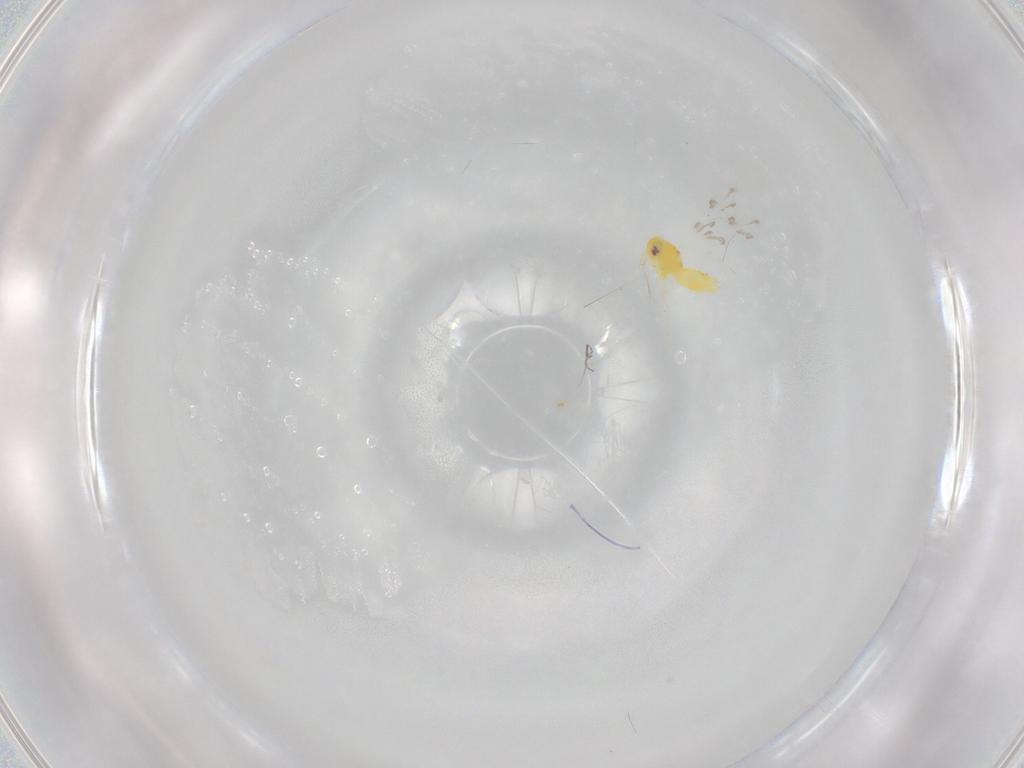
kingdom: Animalia
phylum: Arthropoda
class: Insecta
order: Hemiptera
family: Aleyrodidae
